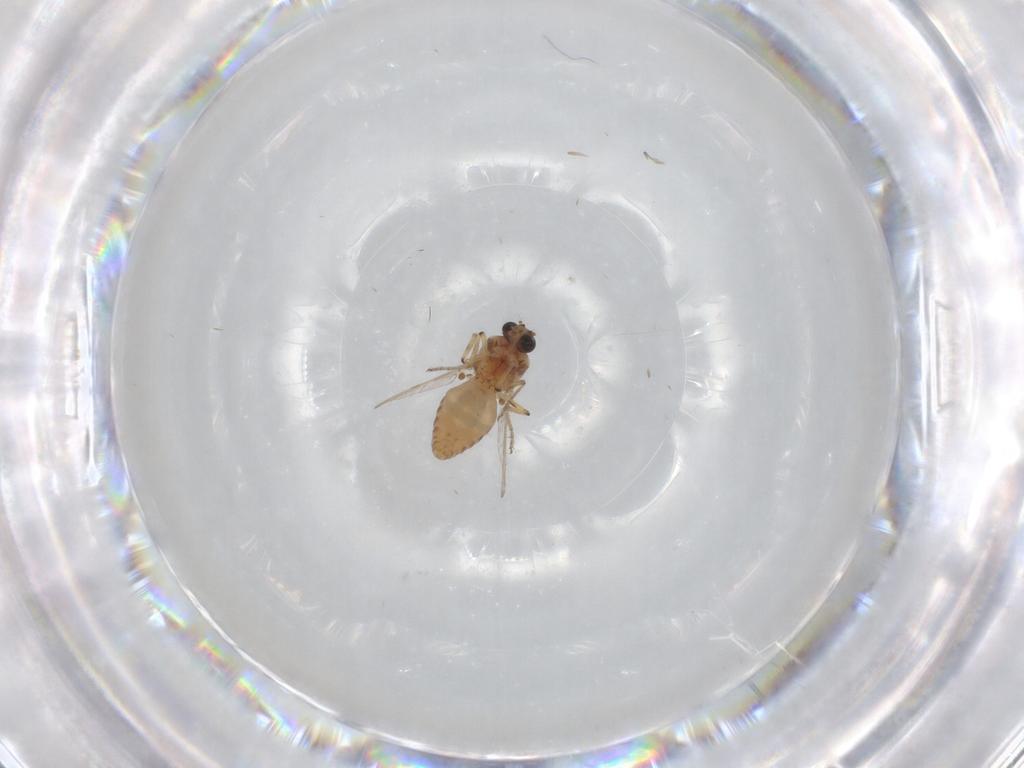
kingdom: Animalia
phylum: Arthropoda
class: Insecta
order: Diptera
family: Ceratopogonidae
